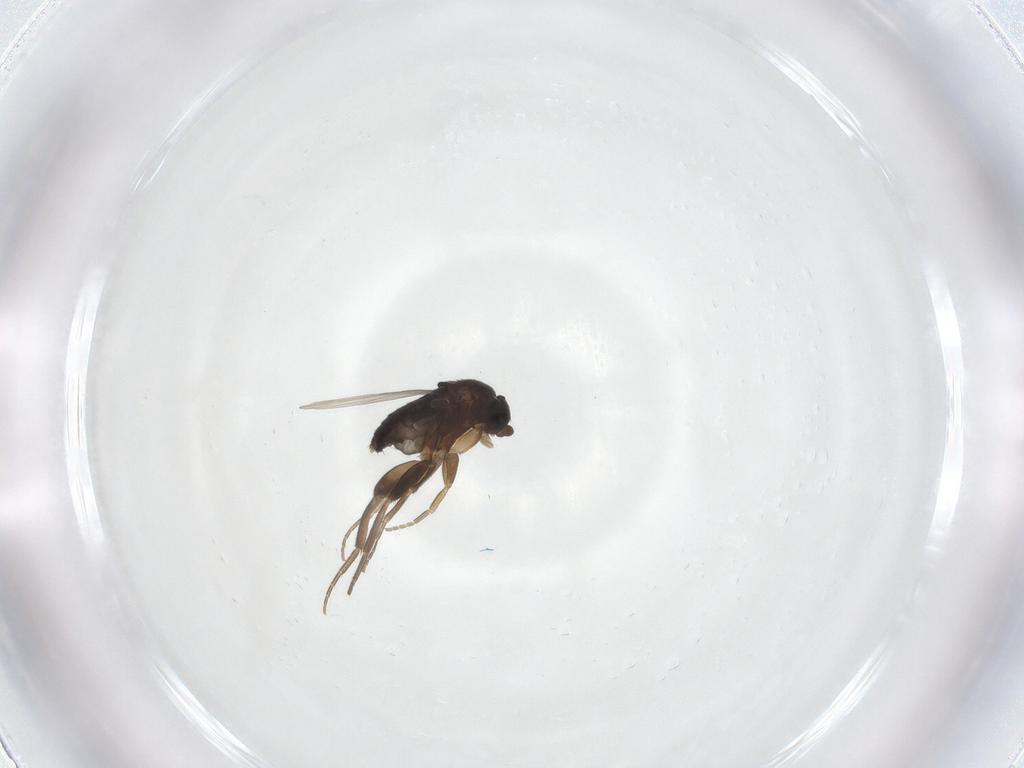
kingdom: Animalia
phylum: Arthropoda
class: Insecta
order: Diptera
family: Phoridae
